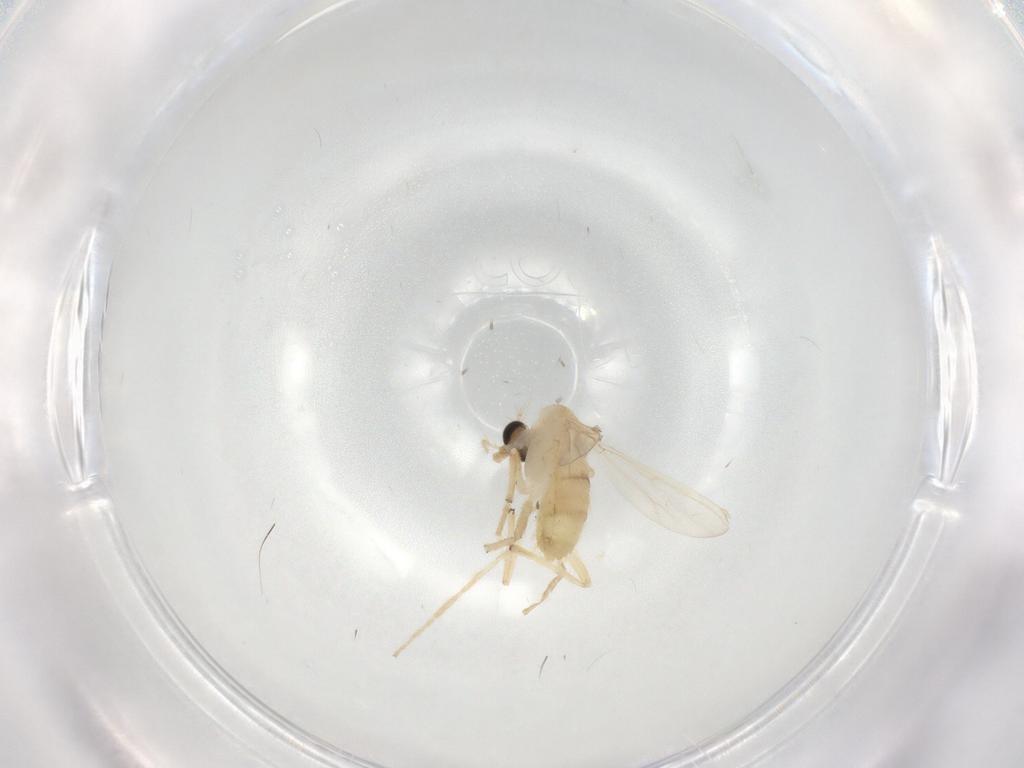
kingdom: Animalia
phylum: Arthropoda
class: Insecta
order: Diptera
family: Chironomidae
